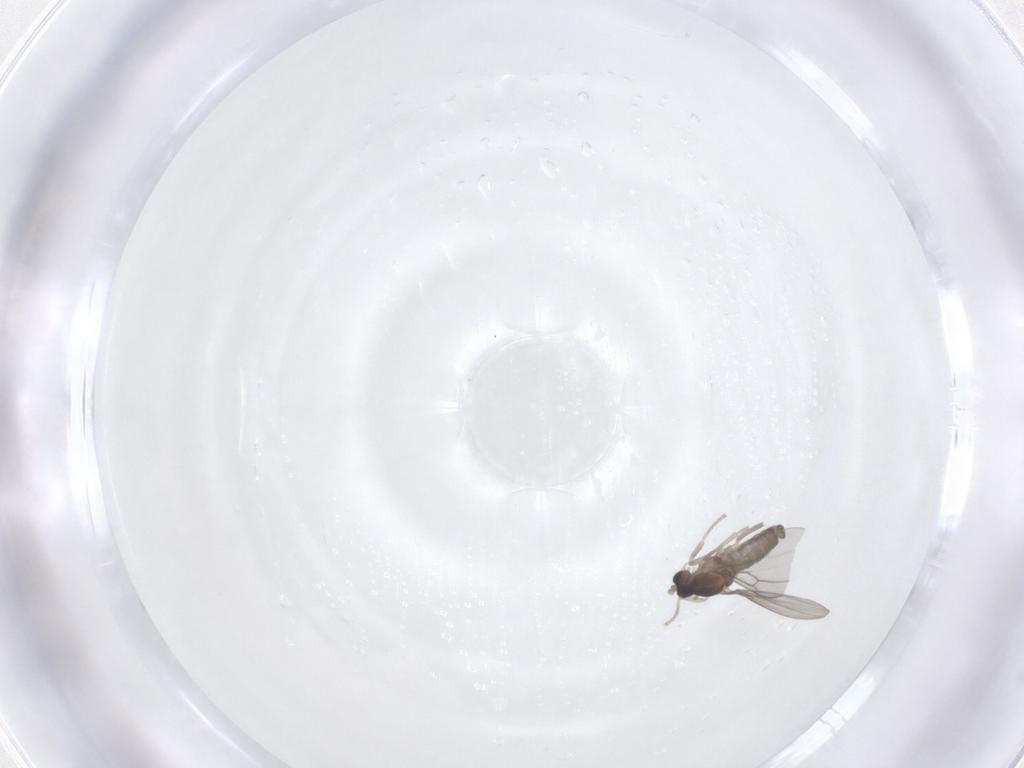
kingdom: Animalia
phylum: Arthropoda
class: Insecta
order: Diptera
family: Cecidomyiidae
